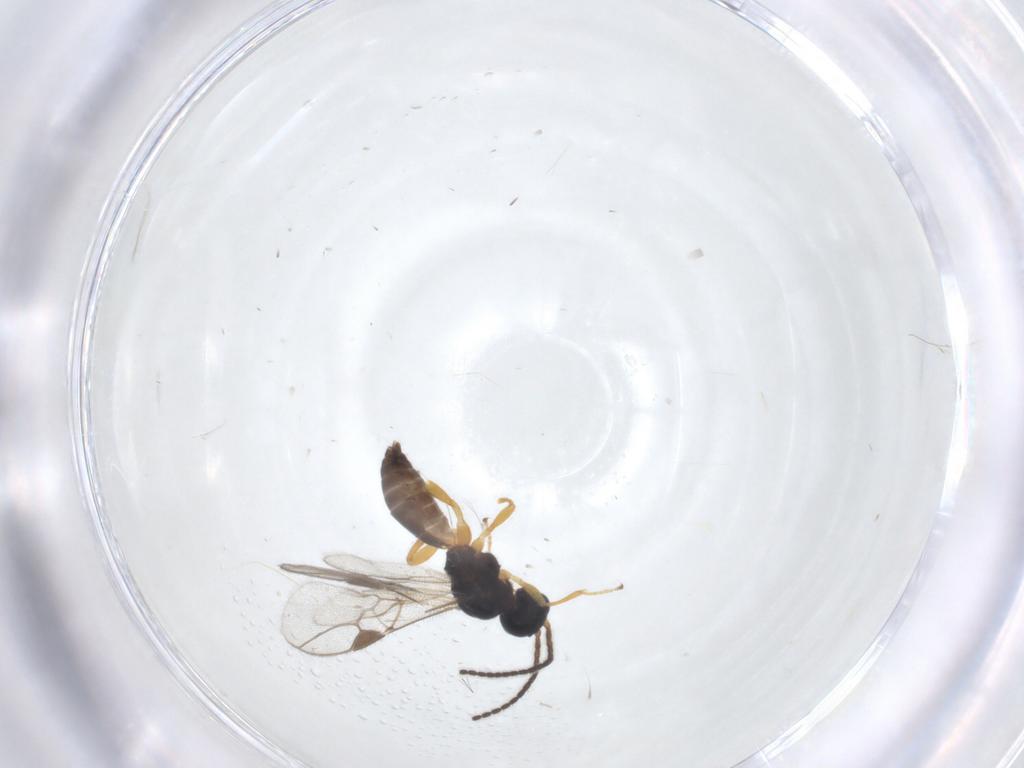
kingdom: Animalia
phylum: Arthropoda
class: Insecta
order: Hymenoptera
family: Braconidae
